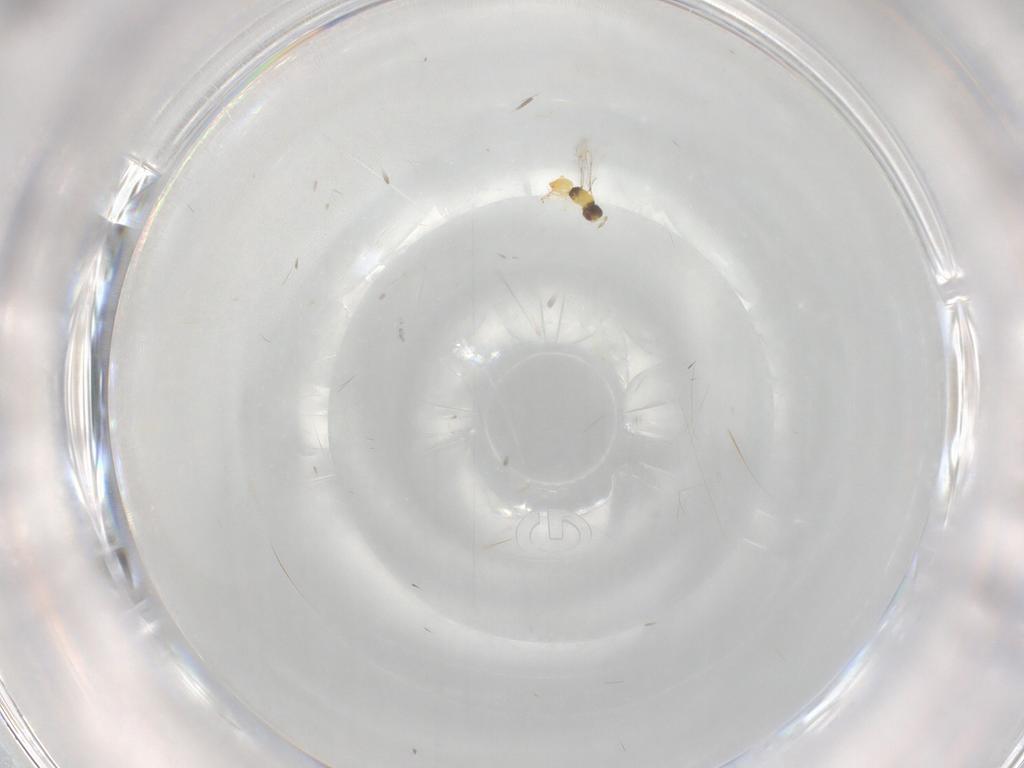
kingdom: Animalia
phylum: Arthropoda
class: Insecta
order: Hymenoptera
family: Eulophidae
